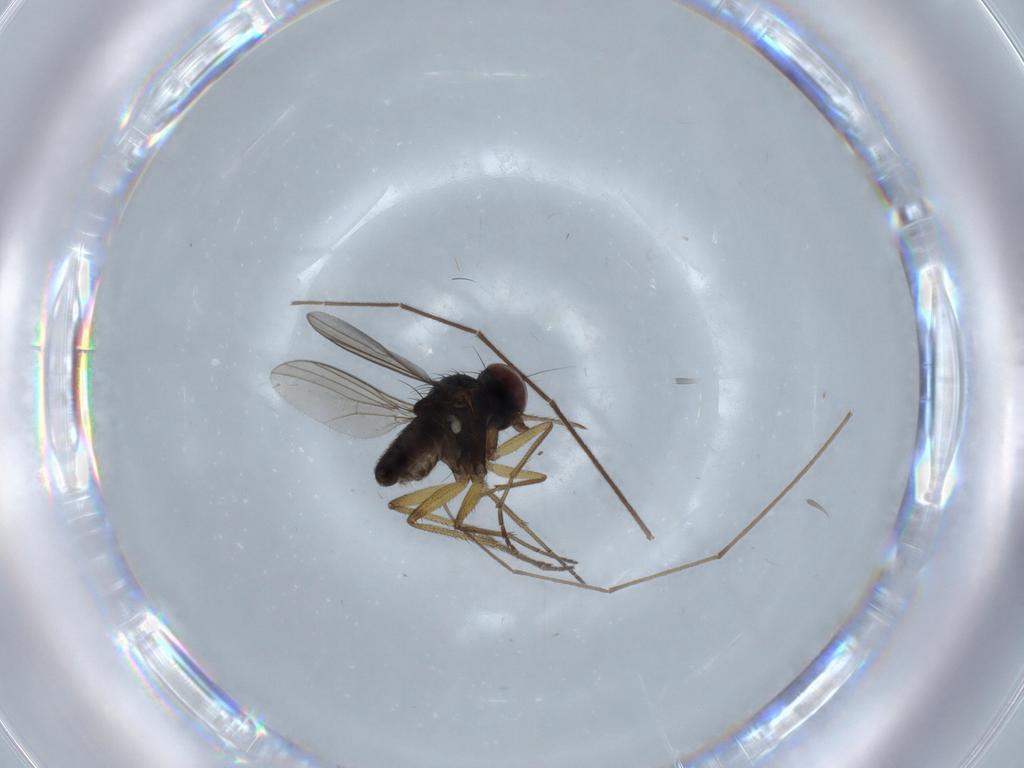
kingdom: Animalia
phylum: Arthropoda
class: Insecta
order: Diptera
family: Dolichopodidae
